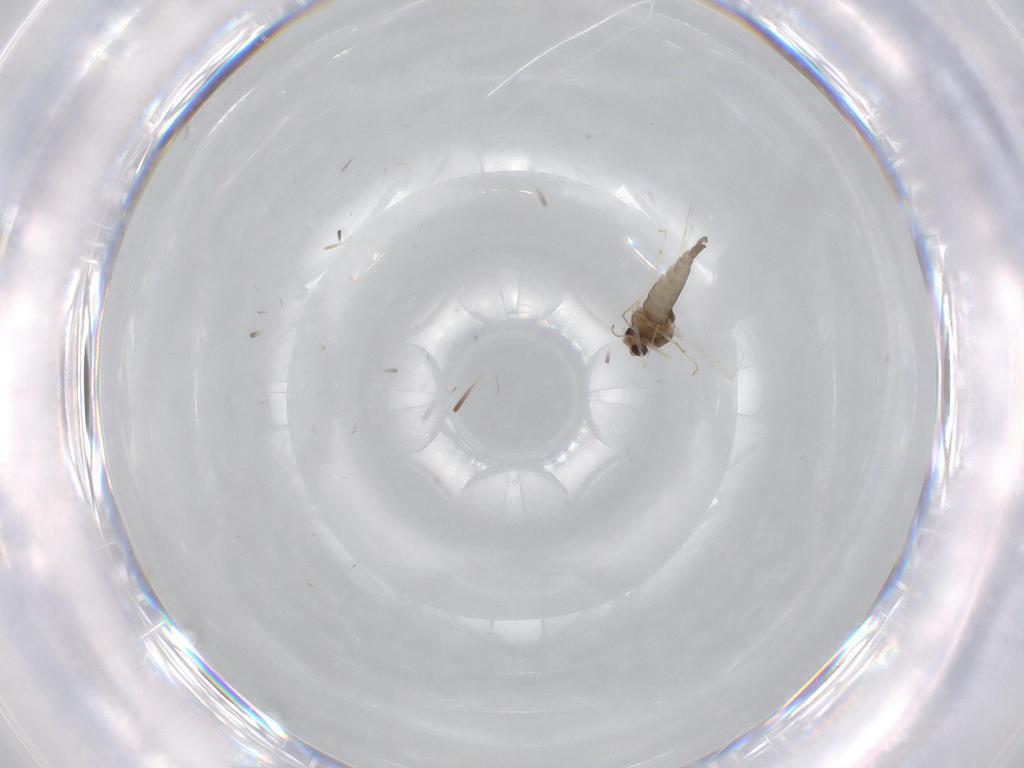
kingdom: Animalia
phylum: Arthropoda
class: Insecta
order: Diptera
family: Chironomidae
